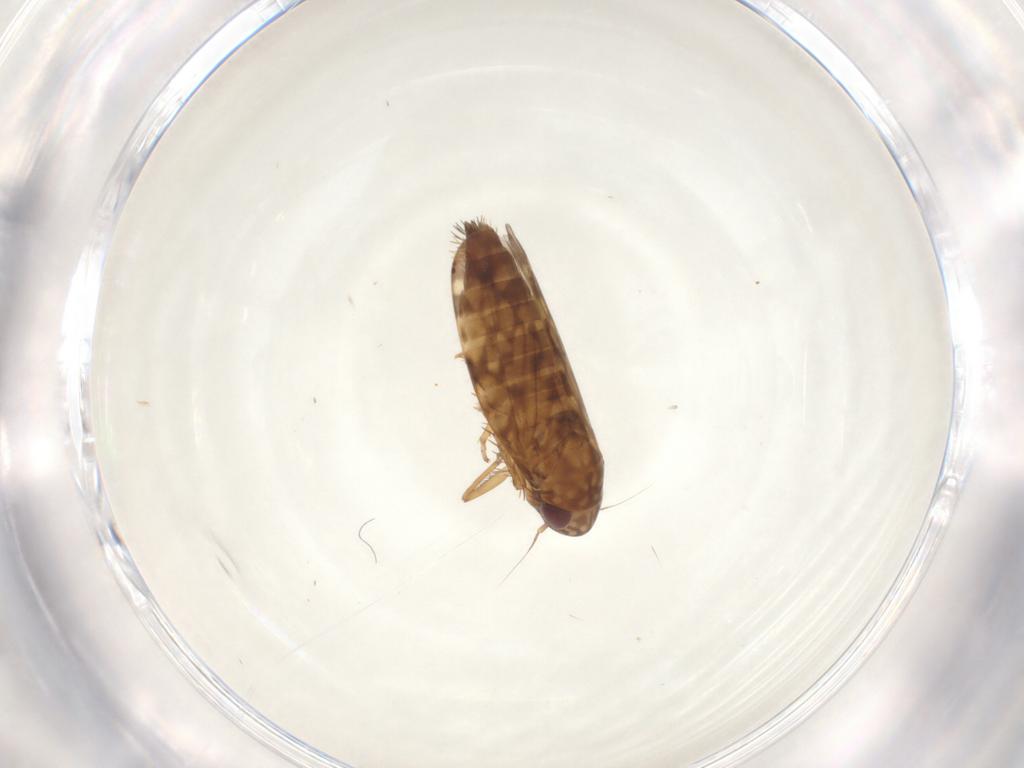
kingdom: Animalia
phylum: Arthropoda
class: Insecta
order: Hemiptera
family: Cicadellidae
